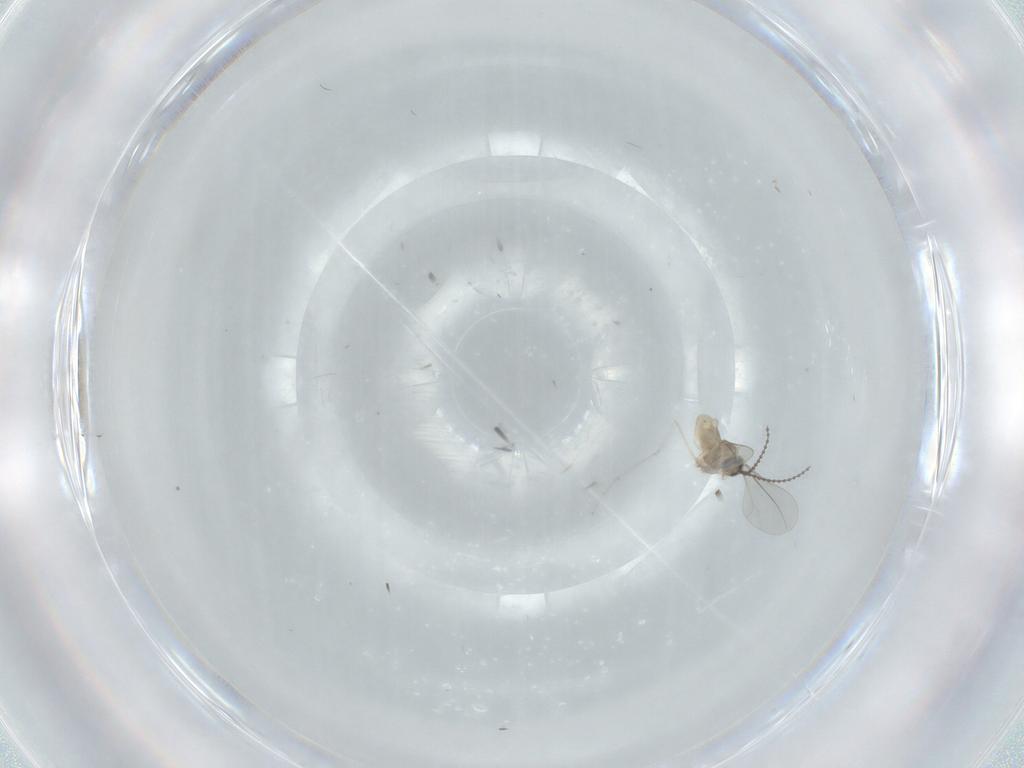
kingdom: Animalia
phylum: Arthropoda
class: Insecta
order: Diptera
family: Cecidomyiidae
